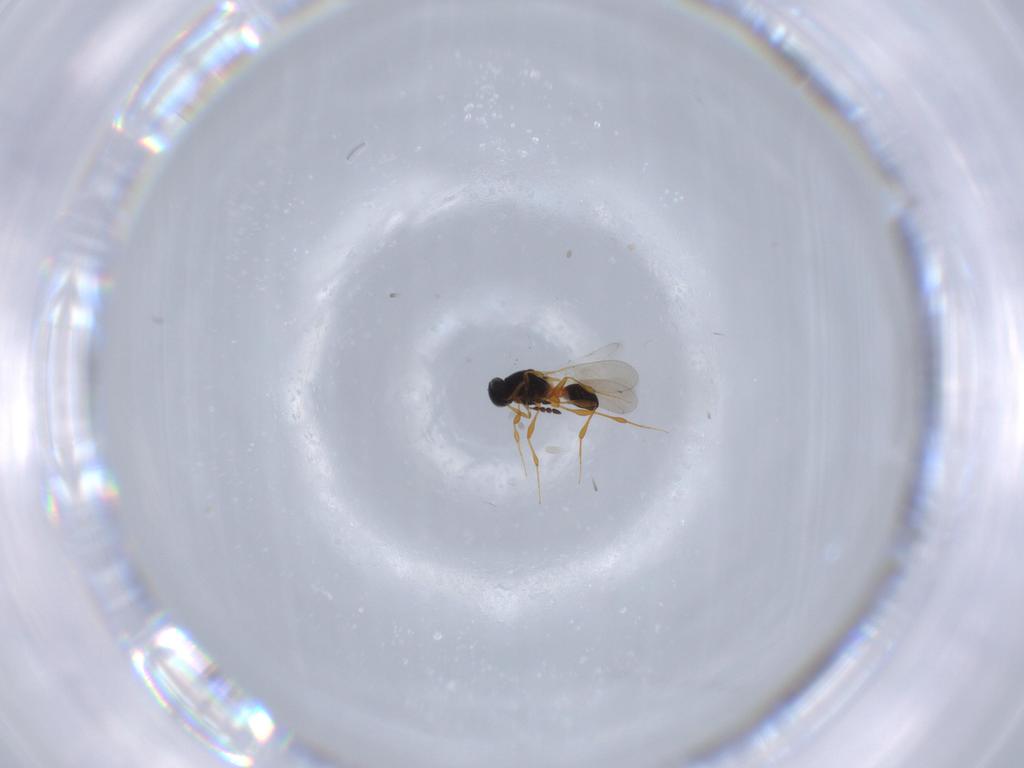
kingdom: Animalia
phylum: Arthropoda
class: Insecta
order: Hymenoptera
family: Platygastridae
